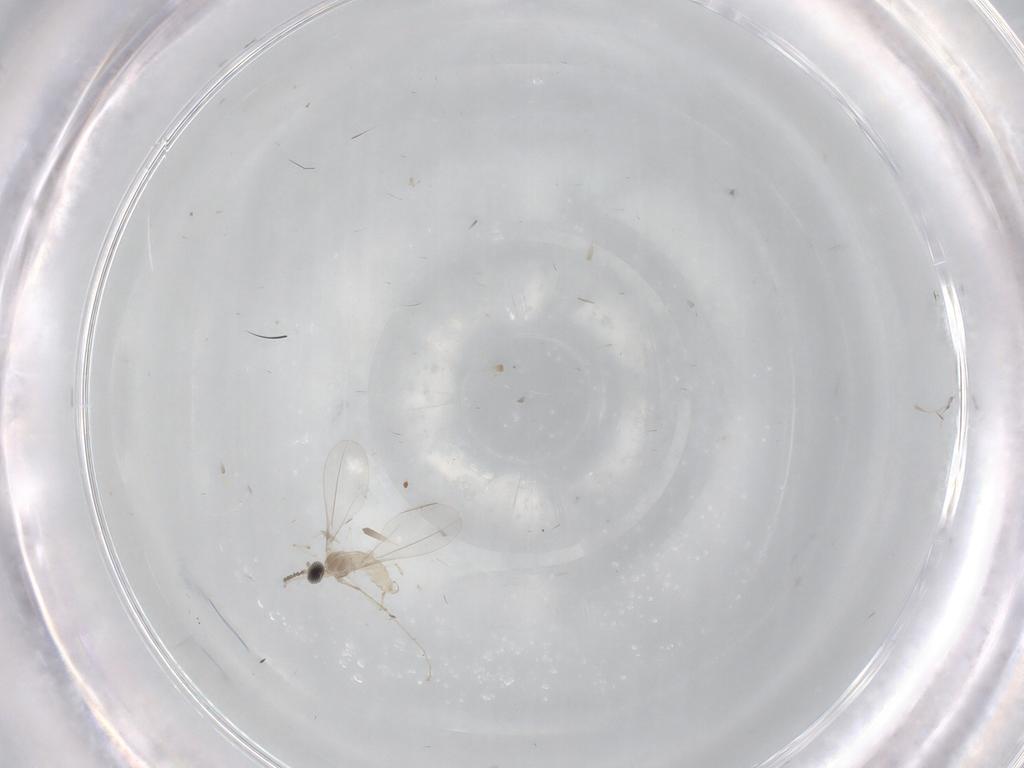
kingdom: Animalia
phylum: Arthropoda
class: Insecta
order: Diptera
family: Cecidomyiidae
